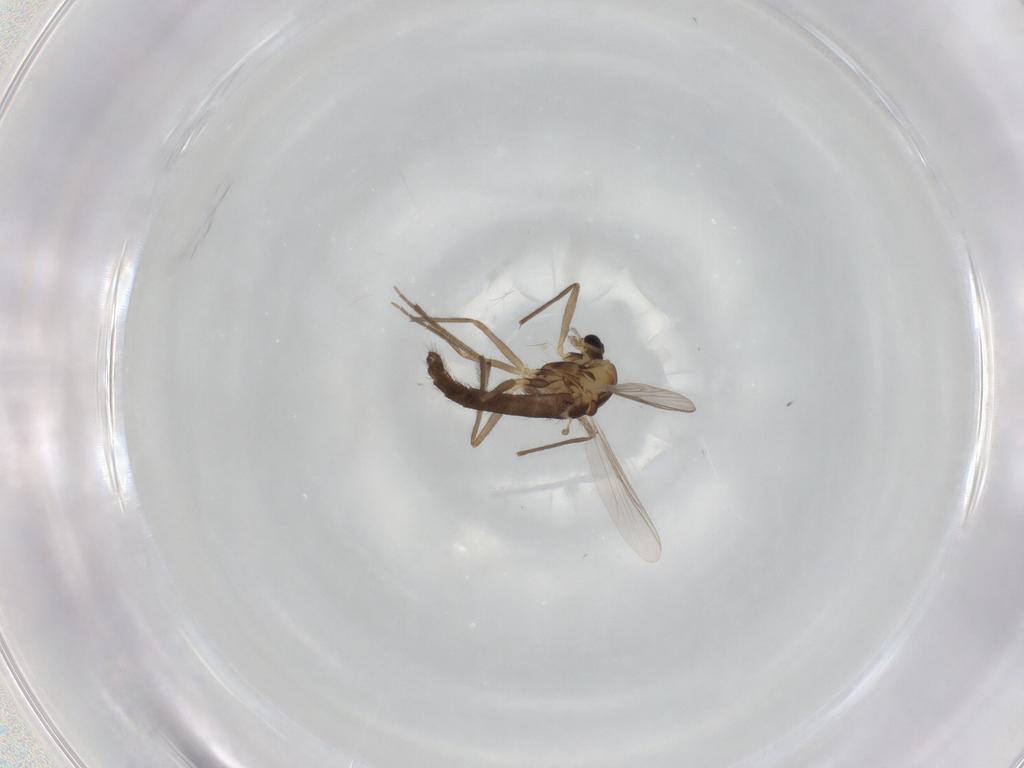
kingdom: Animalia
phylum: Arthropoda
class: Insecta
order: Diptera
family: Chironomidae
